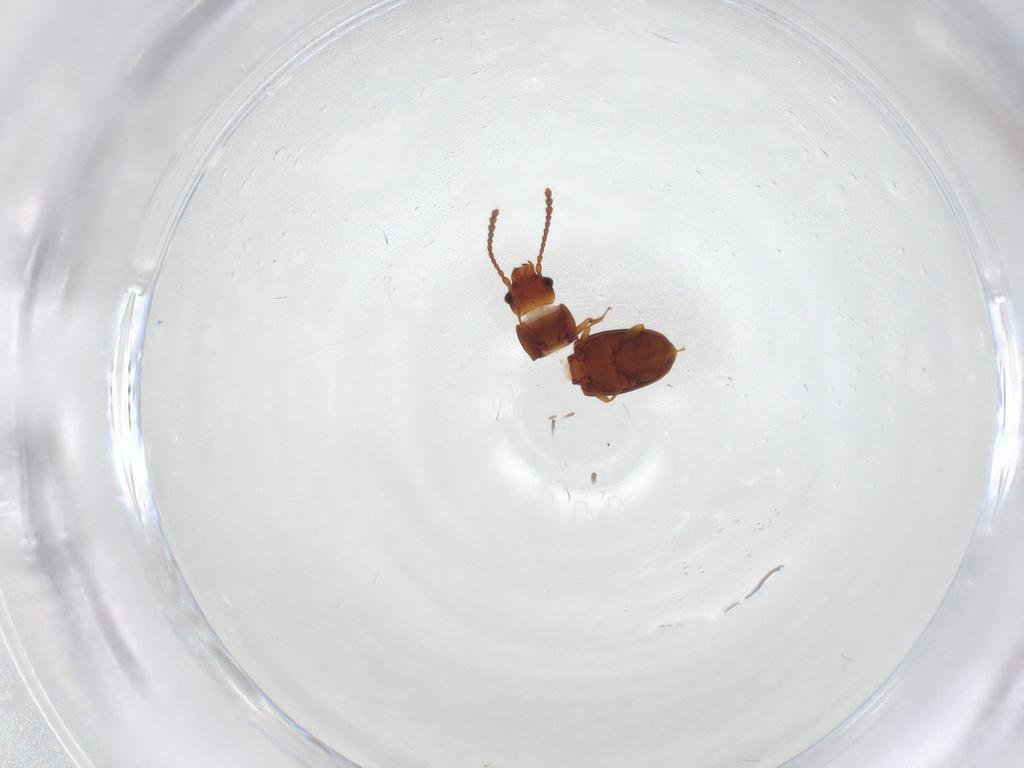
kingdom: Animalia
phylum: Arthropoda
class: Insecta
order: Coleoptera
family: Laemophloeidae
